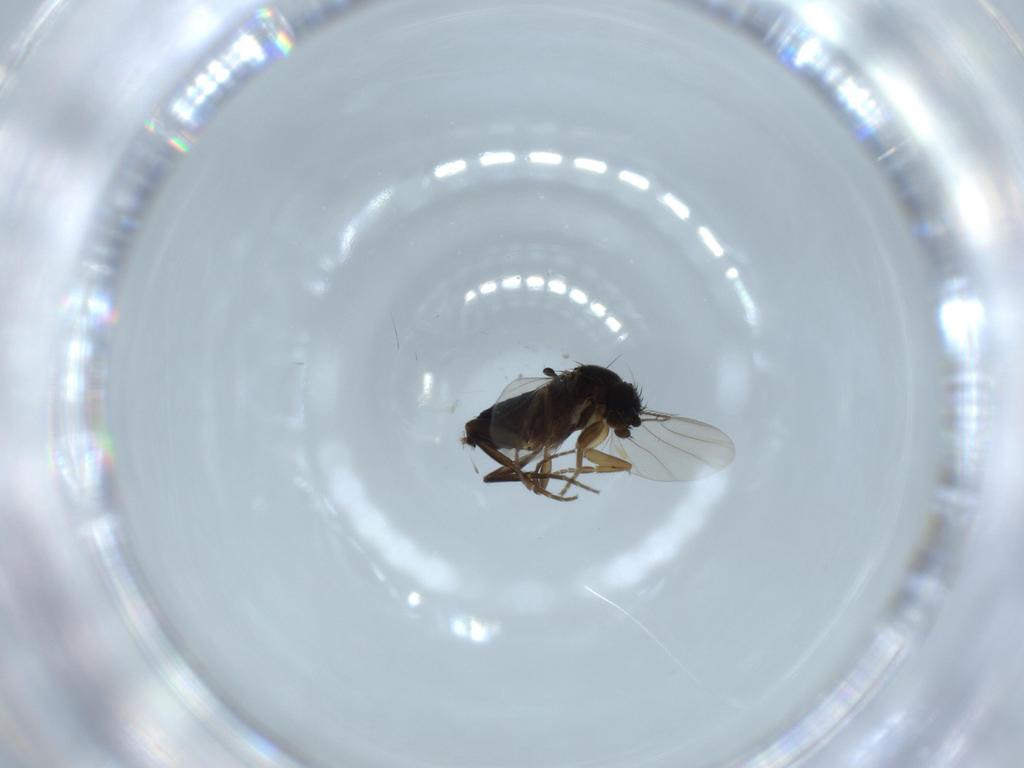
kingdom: Animalia
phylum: Arthropoda
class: Insecta
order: Diptera
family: Phoridae
